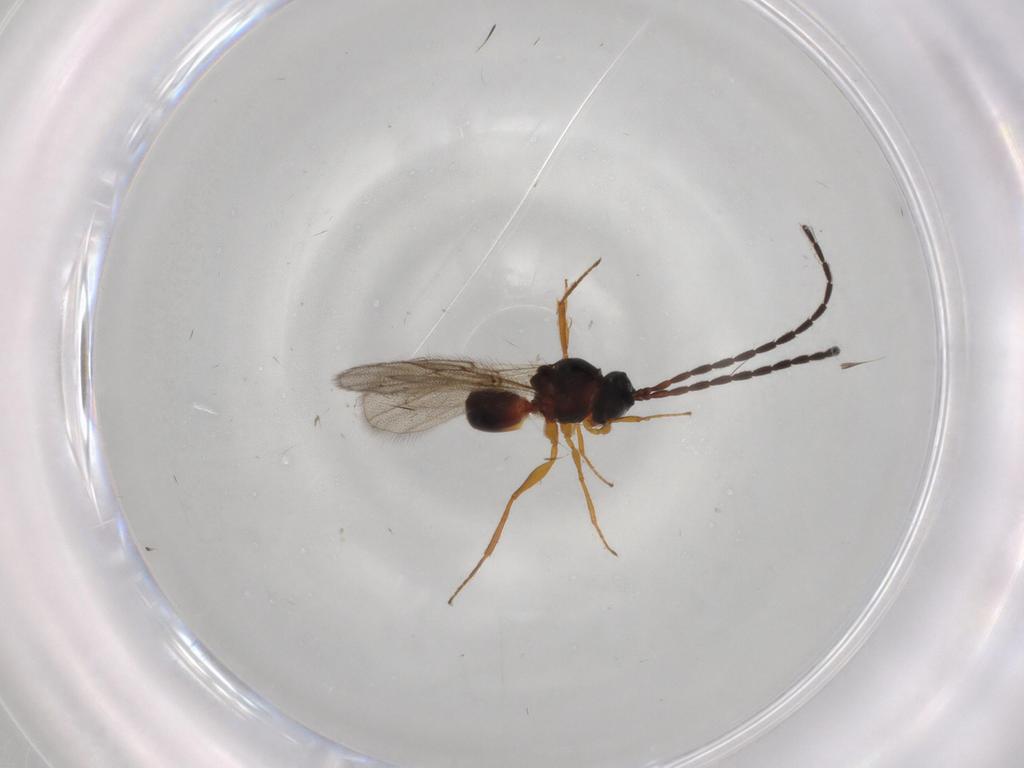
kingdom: Animalia
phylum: Arthropoda
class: Insecta
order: Hymenoptera
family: Figitidae
